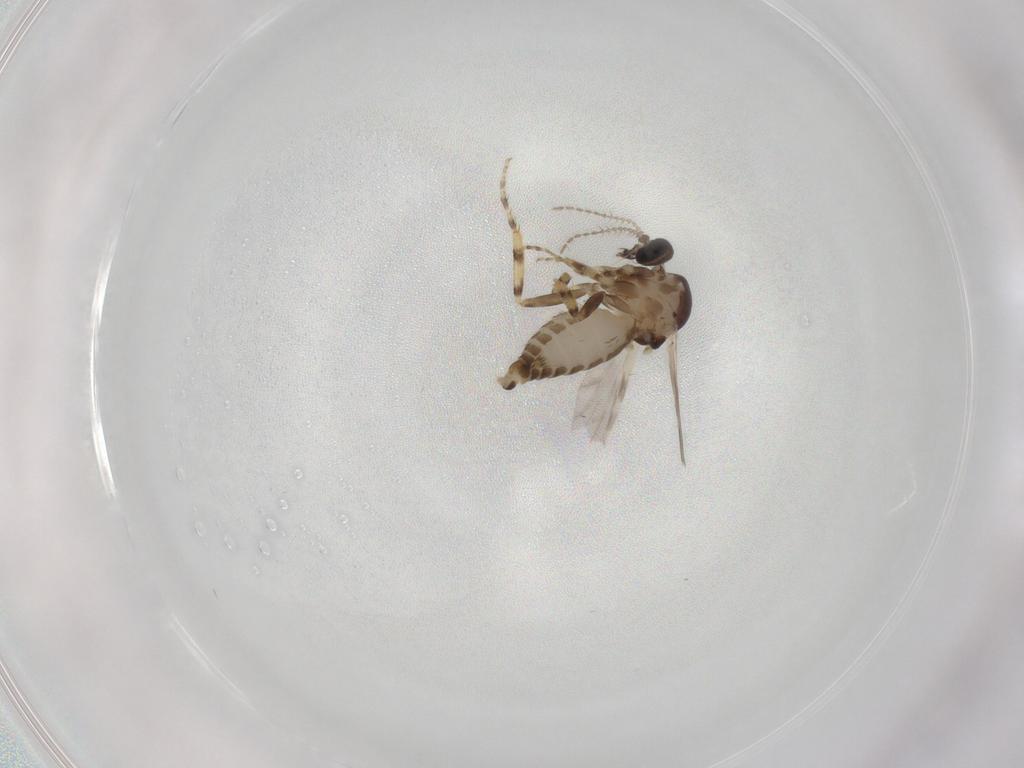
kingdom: Animalia
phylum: Arthropoda
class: Insecta
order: Diptera
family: Ceratopogonidae
